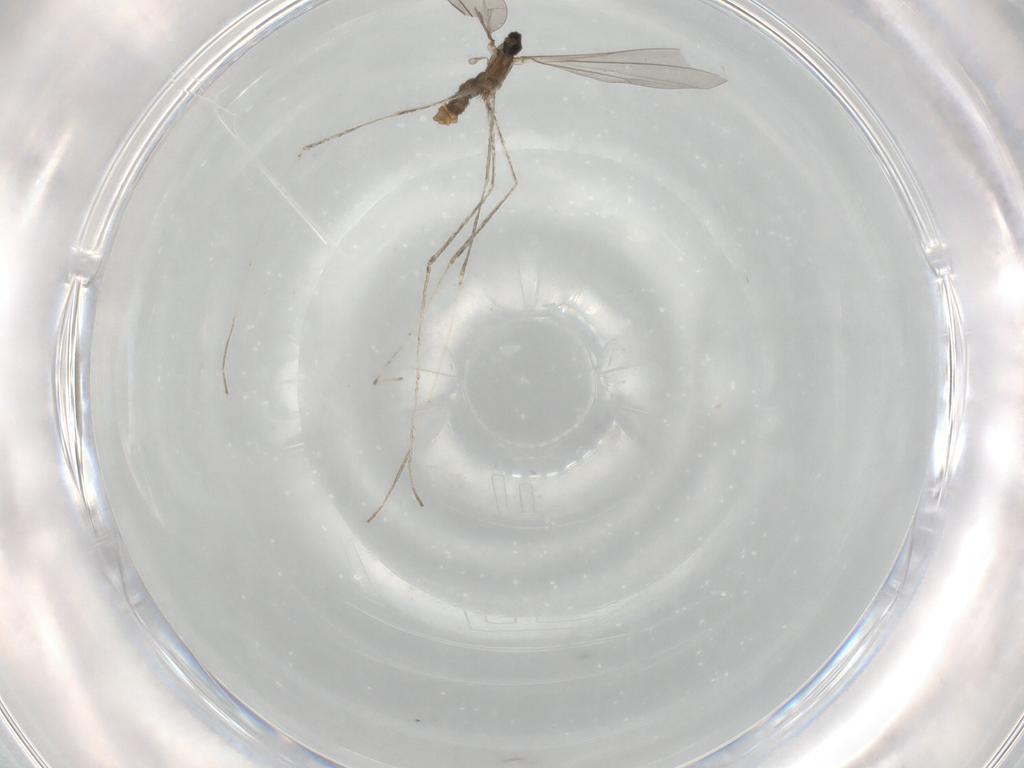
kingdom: Animalia
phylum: Arthropoda
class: Insecta
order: Diptera
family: Cecidomyiidae
